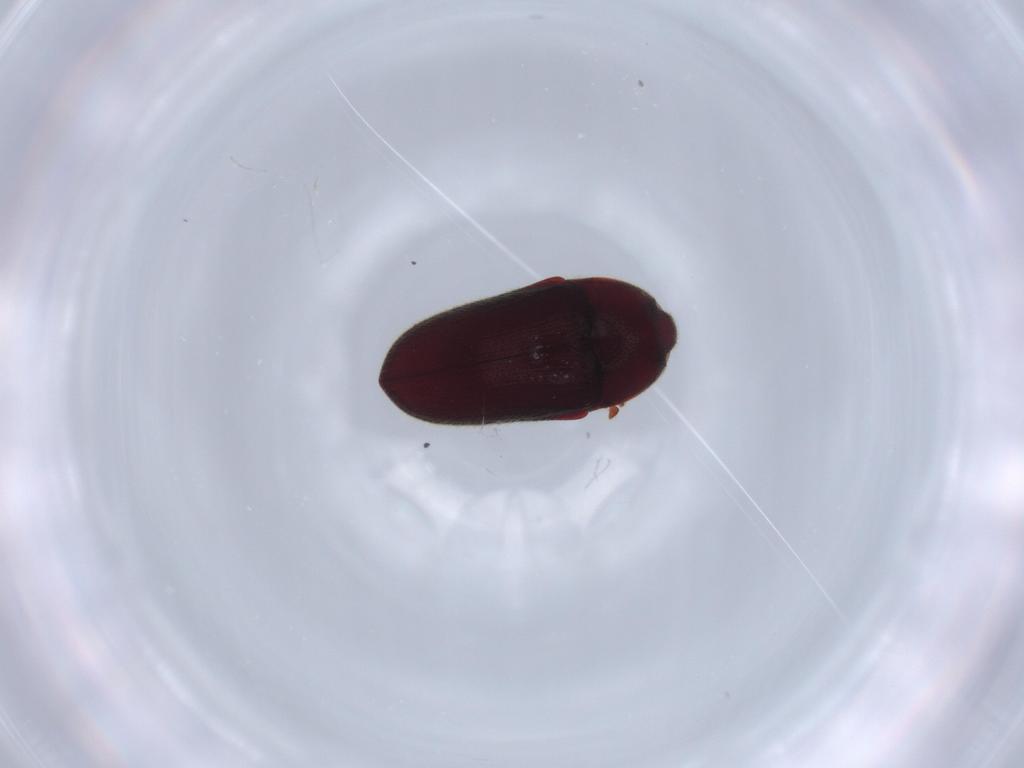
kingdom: Animalia
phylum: Arthropoda
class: Insecta
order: Coleoptera
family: Throscidae
